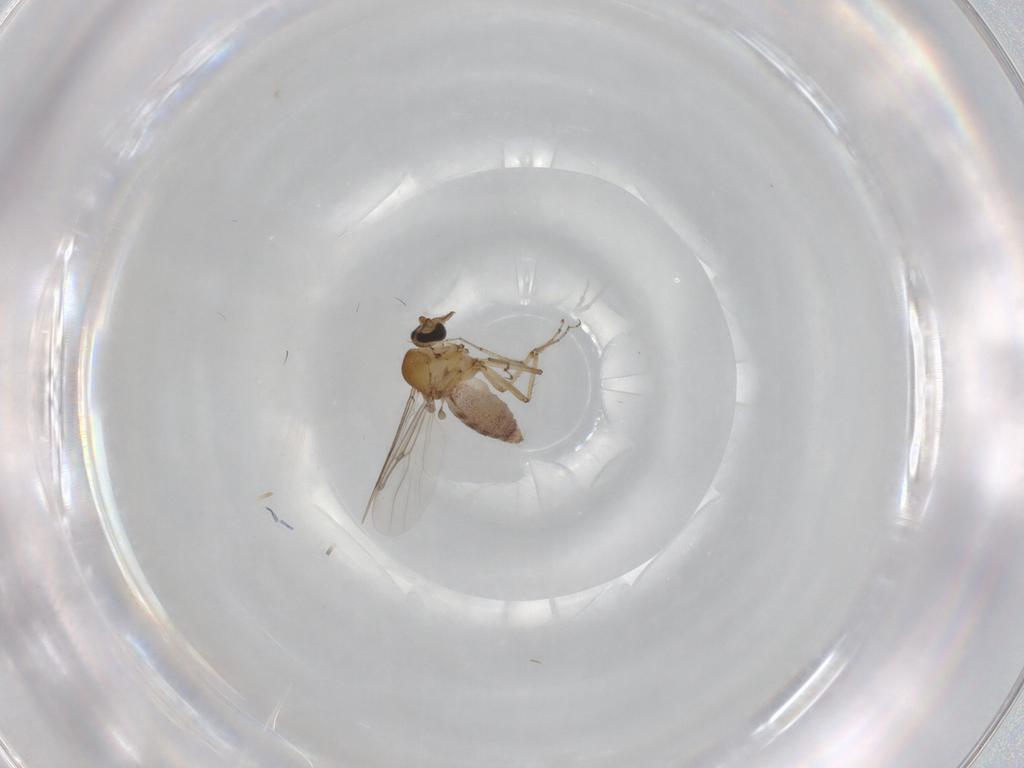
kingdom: Animalia
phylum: Arthropoda
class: Insecta
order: Diptera
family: Ceratopogonidae
